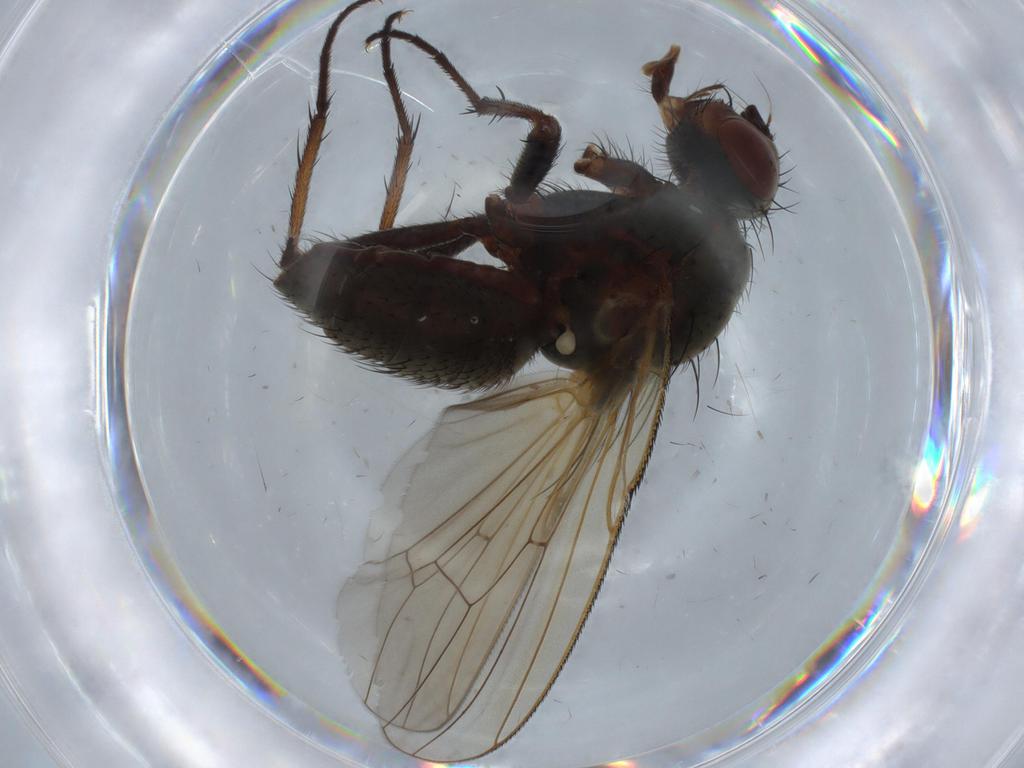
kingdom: Animalia
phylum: Arthropoda
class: Insecta
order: Diptera
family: Anthomyiidae
